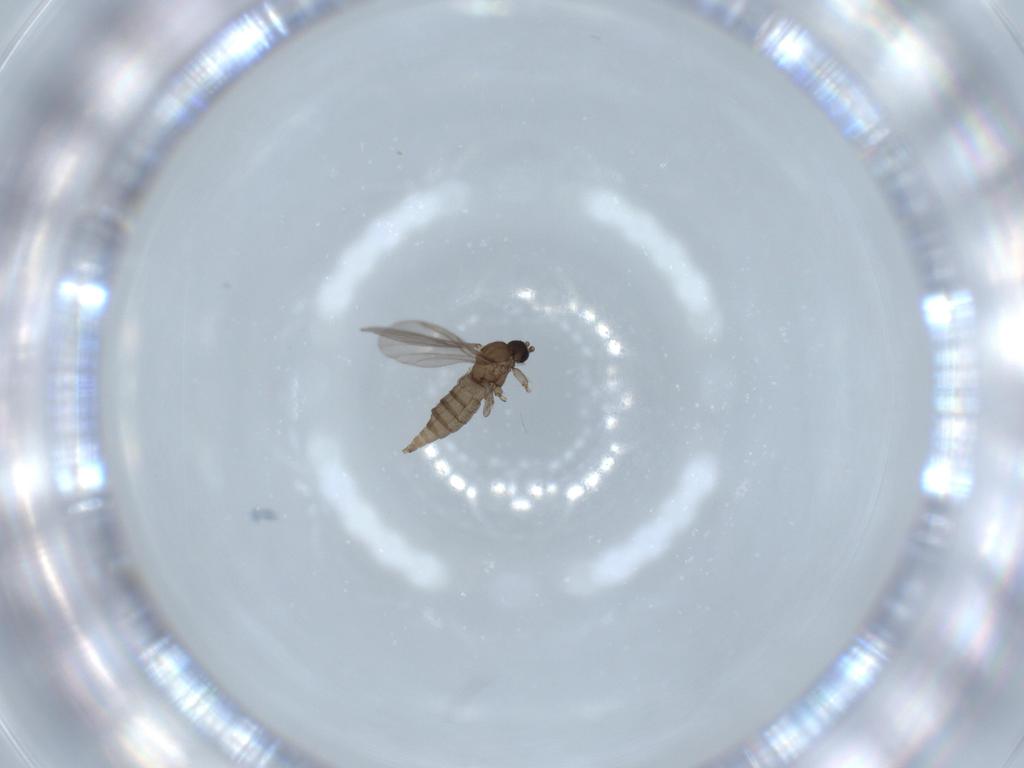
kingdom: Animalia
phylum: Arthropoda
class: Insecta
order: Diptera
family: Sciaridae
